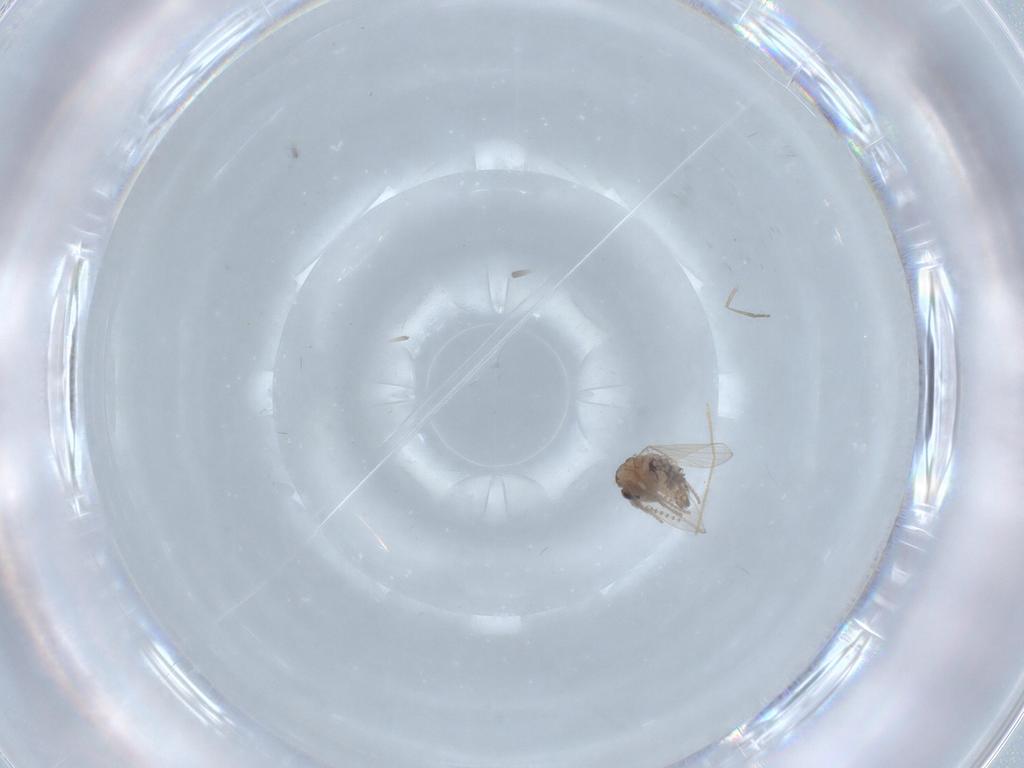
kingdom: Animalia
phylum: Arthropoda
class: Insecta
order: Diptera
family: Psychodidae
